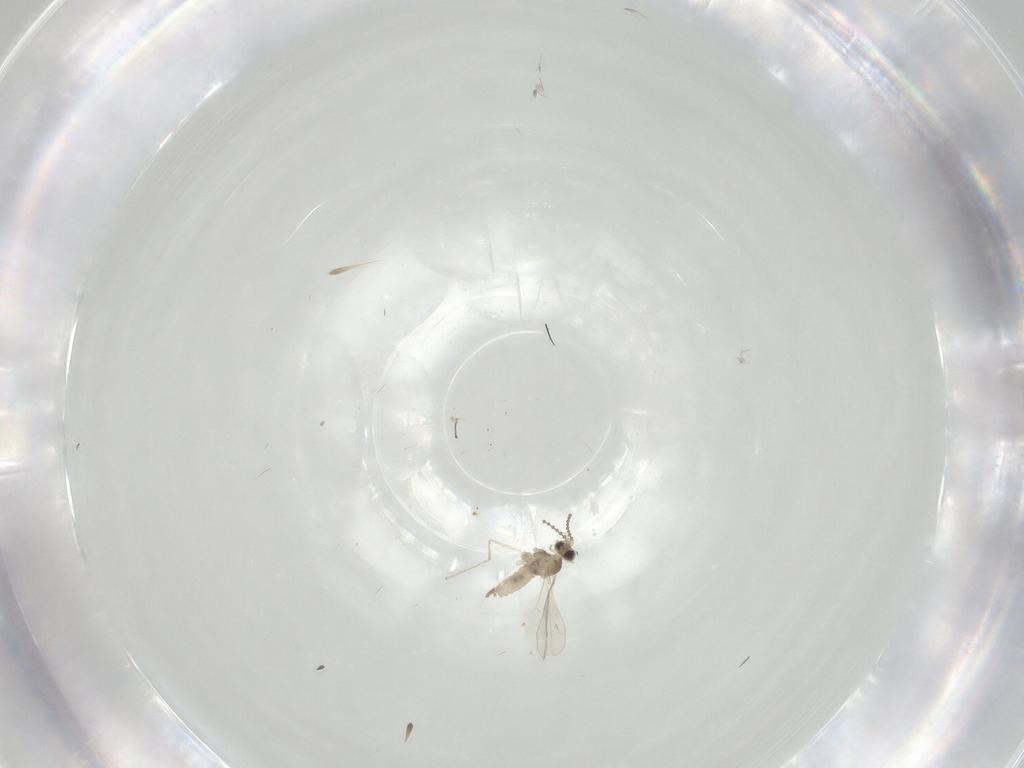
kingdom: Animalia
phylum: Arthropoda
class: Insecta
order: Diptera
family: Cecidomyiidae
